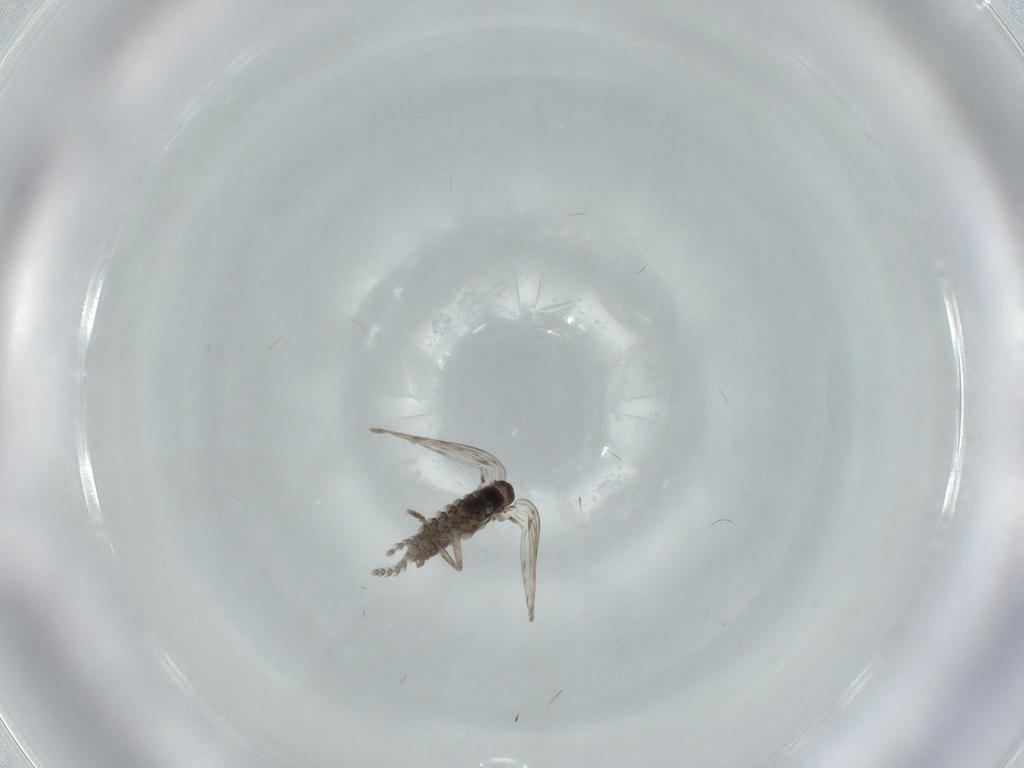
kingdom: Animalia
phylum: Arthropoda
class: Insecta
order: Diptera
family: Psychodidae
